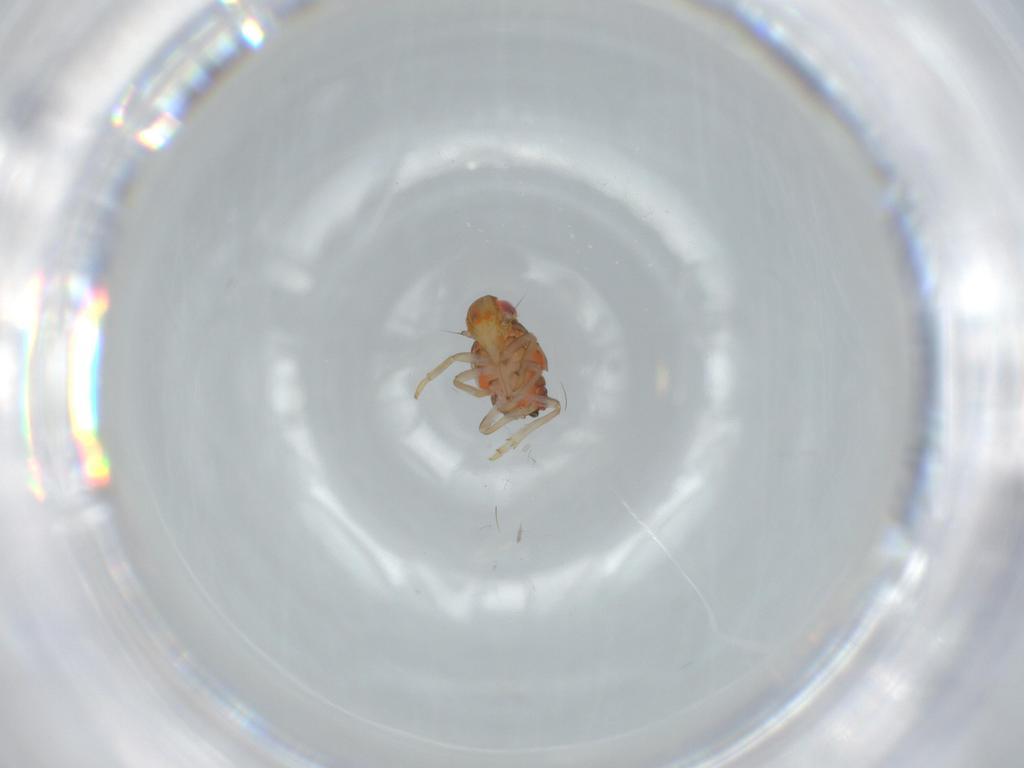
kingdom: Animalia
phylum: Arthropoda
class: Insecta
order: Hemiptera
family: Issidae
